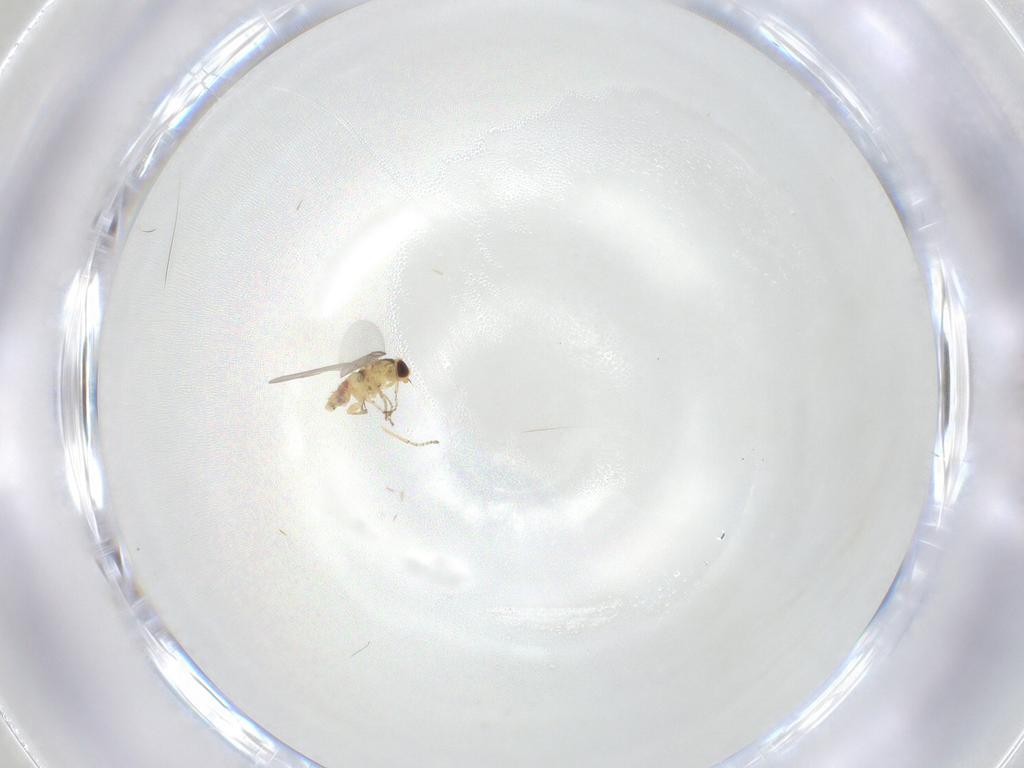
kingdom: Animalia
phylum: Arthropoda
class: Insecta
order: Diptera
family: Agromyzidae
